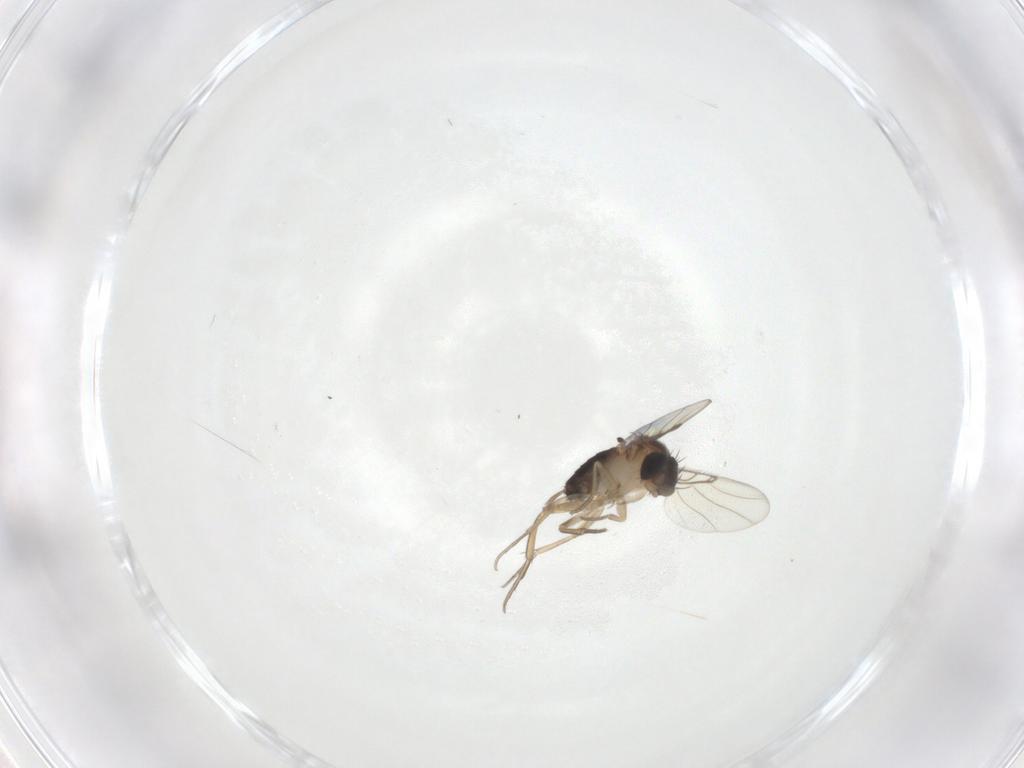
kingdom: Animalia
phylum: Arthropoda
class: Insecta
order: Diptera
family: Phoridae
